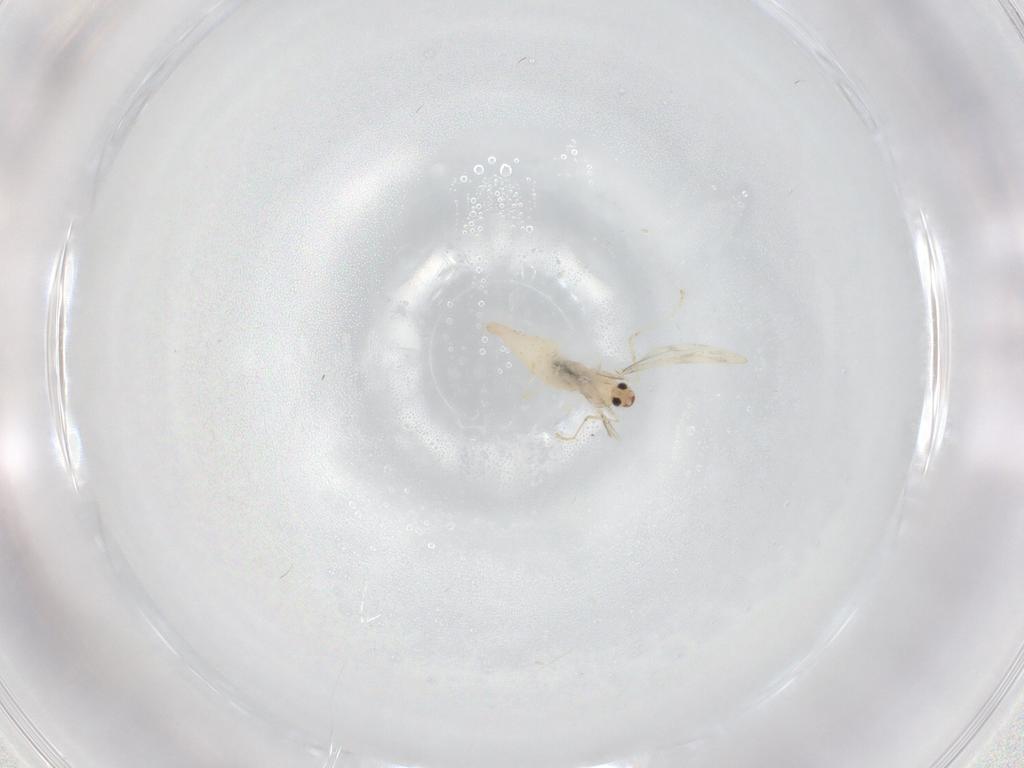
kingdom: Animalia
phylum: Arthropoda
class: Insecta
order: Diptera
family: Cecidomyiidae
